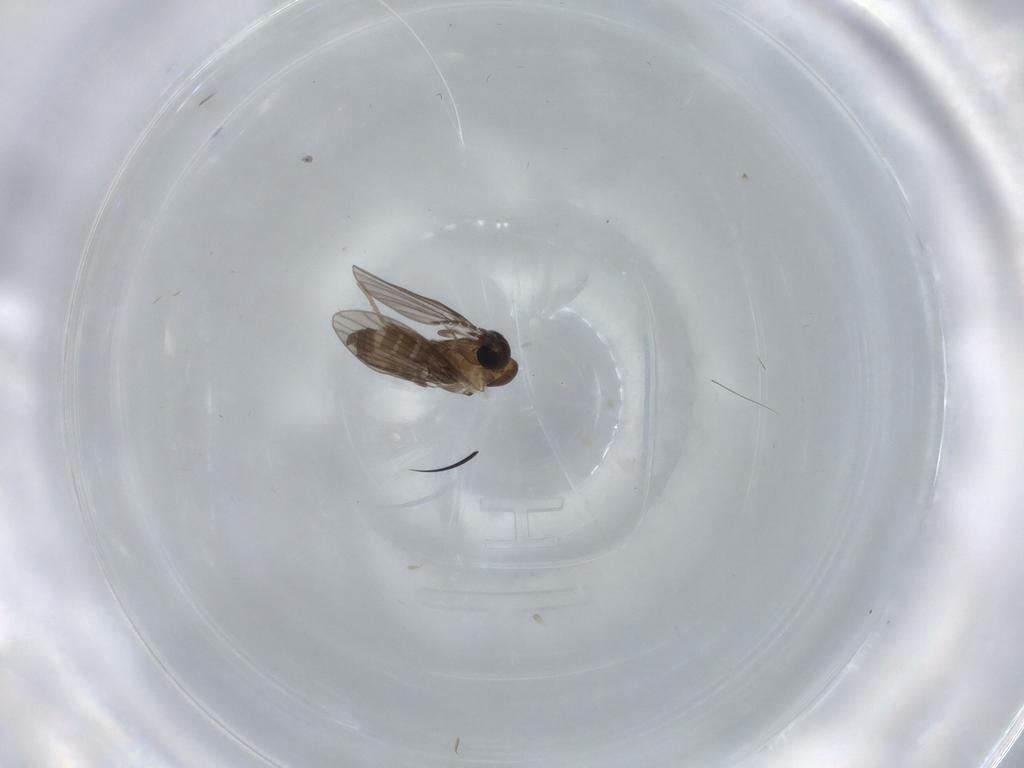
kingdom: Animalia
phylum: Arthropoda
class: Insecta
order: Diptera
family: Psychodidae
